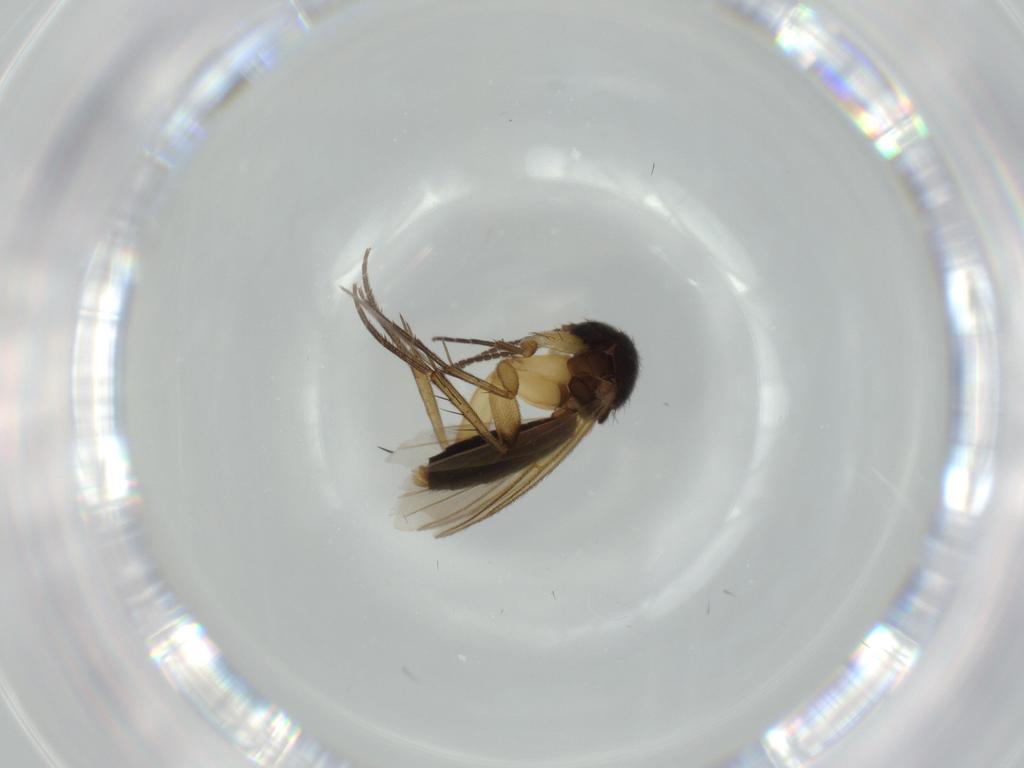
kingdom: Animalia
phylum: Arthropoda
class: Insecta
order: Diptera
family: Mycetophilidae
